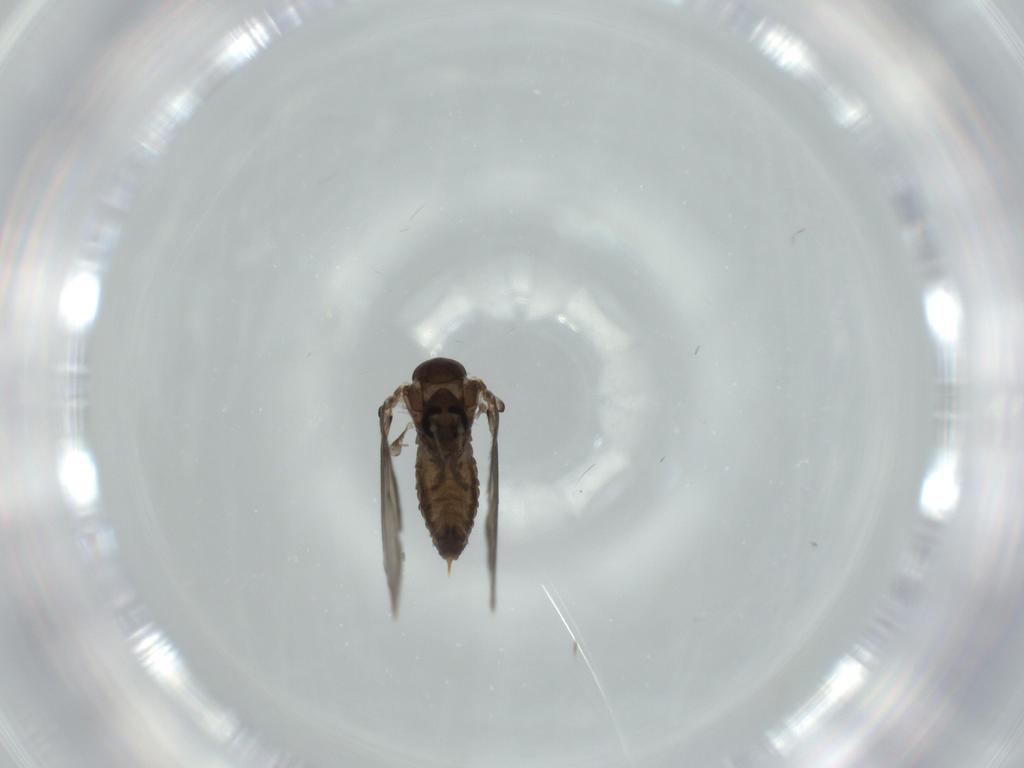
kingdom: Animalia
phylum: Arthropoda
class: Insecta
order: Diptera
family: Psychodidae
